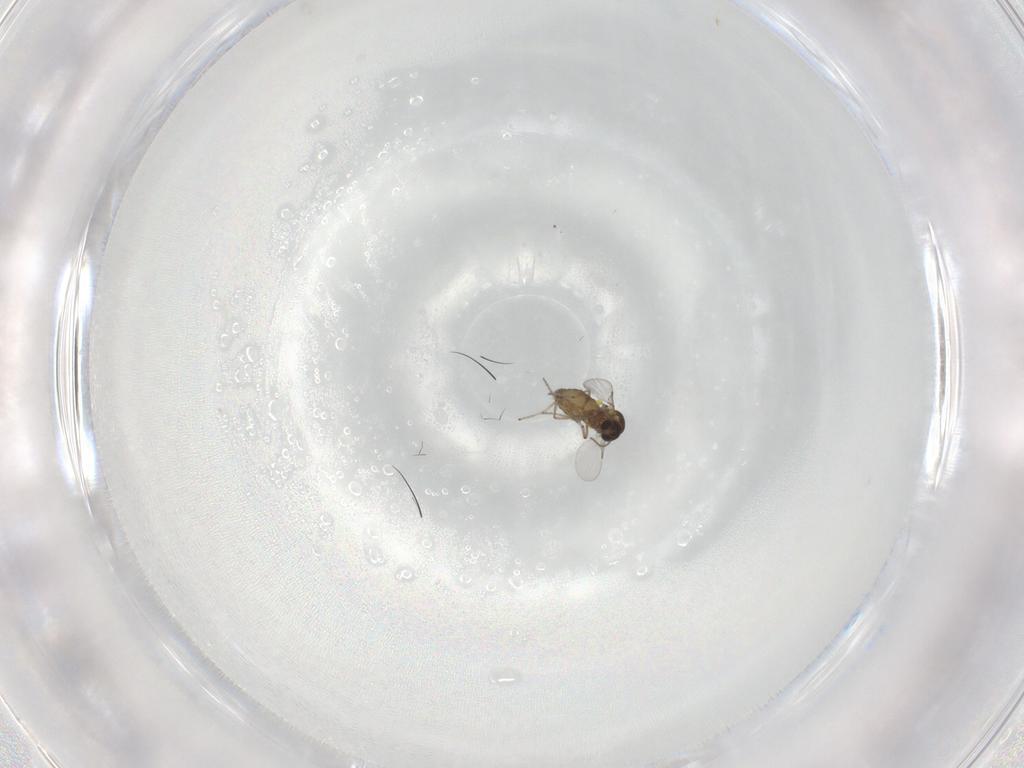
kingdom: Animalia
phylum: Arthropoda
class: Insecta
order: Diptera
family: Ceratopogonidae
